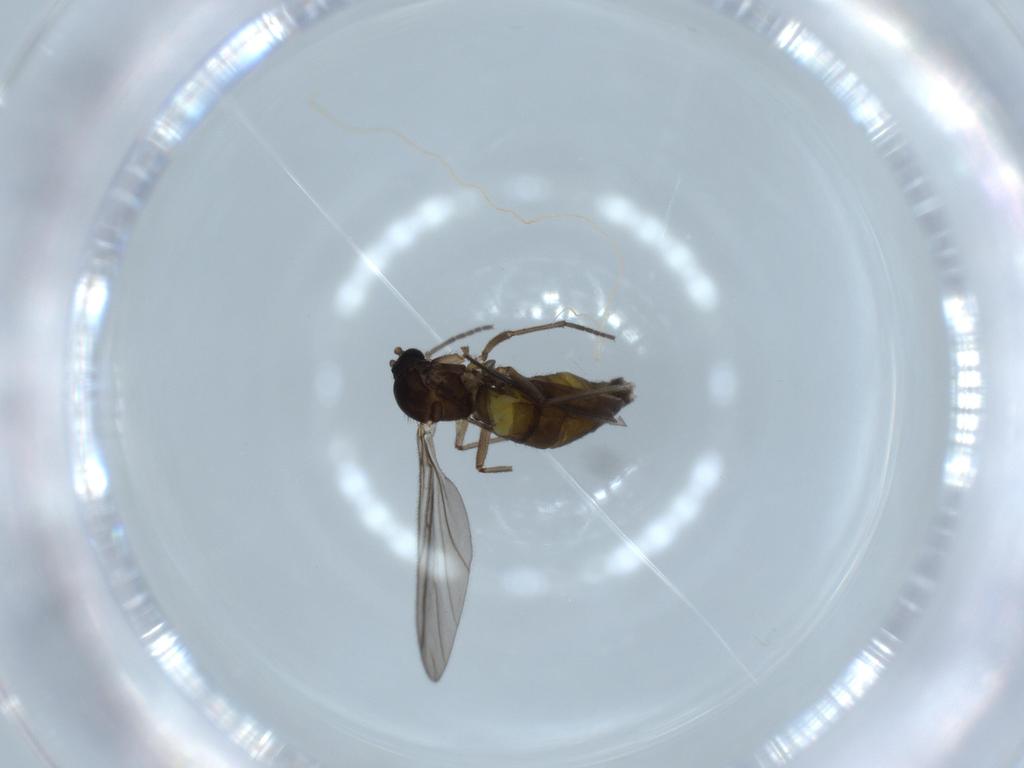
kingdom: Animalia
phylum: Arthropoda
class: Insecta
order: Diptera
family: Sciaridae
